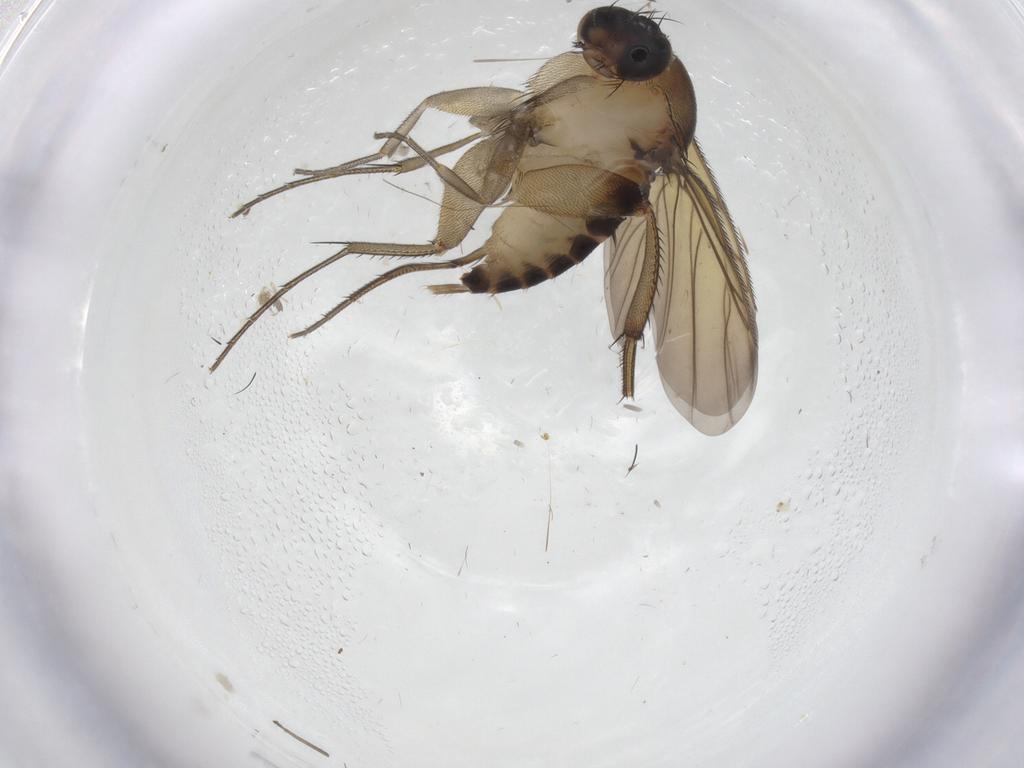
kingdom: Animalia
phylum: Arthropoda
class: Insecta
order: Diptera
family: Phoridae
